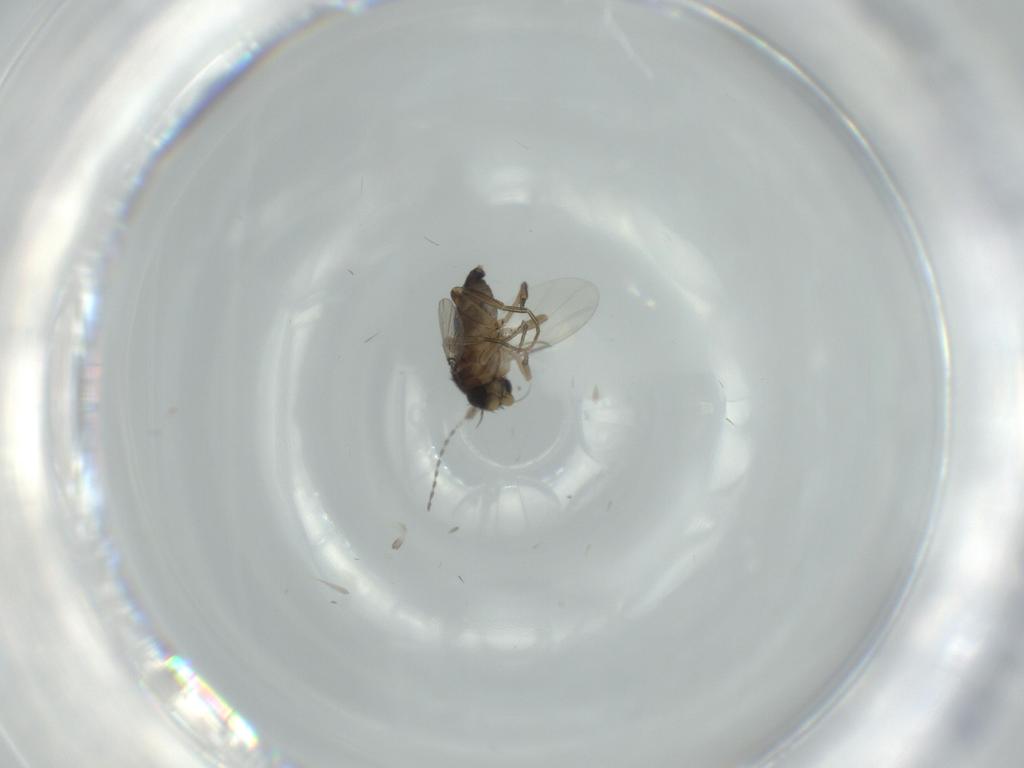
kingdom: Animalia
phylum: Arthropoda
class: Insecta
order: Diptera
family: Phoridae
